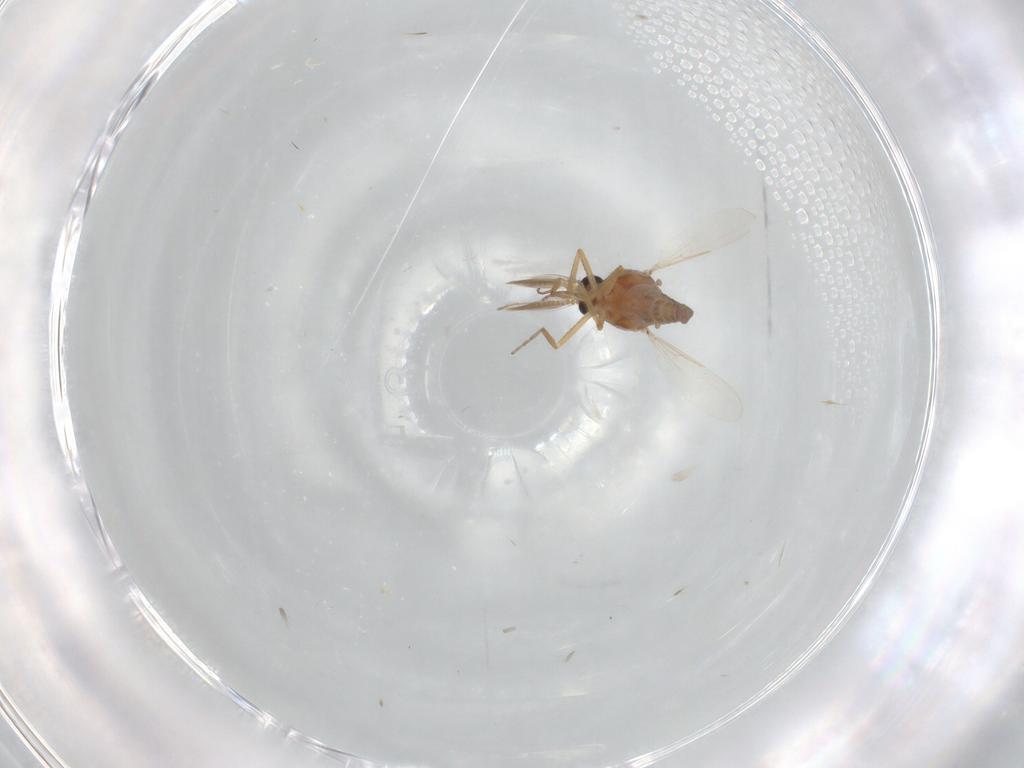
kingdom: Animalia
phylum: Arthropoda
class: Insecta
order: Diptera
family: Ceratopogonidae
